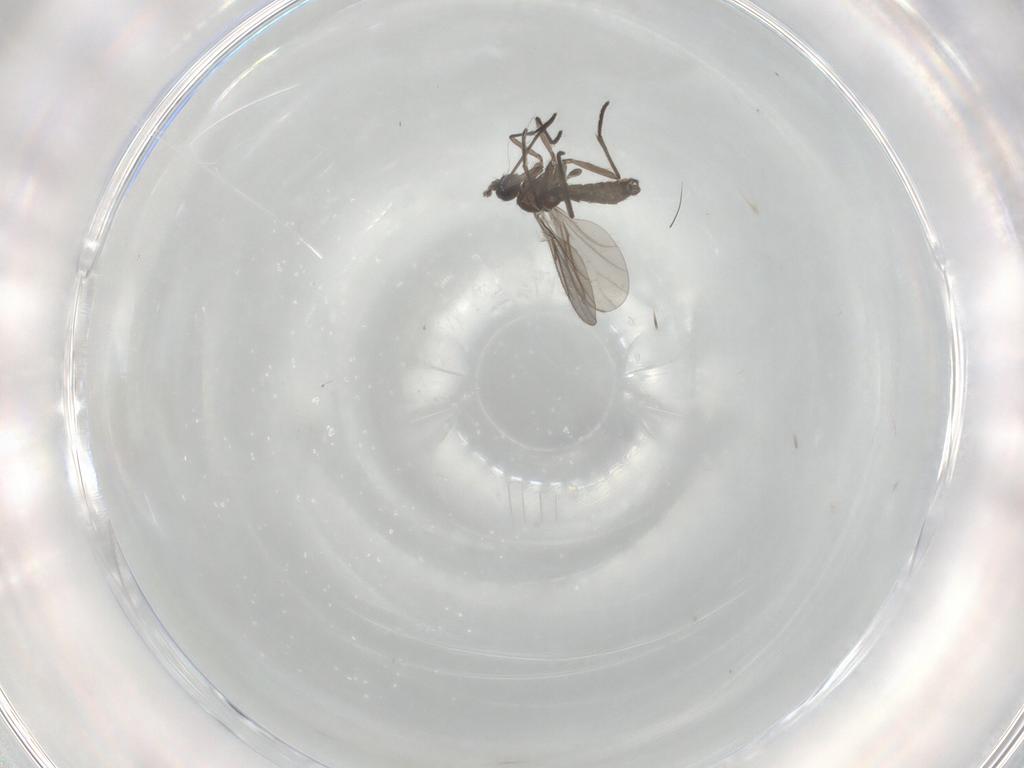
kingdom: Animalia
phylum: Arthropoda
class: Insecta
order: Diptera
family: Sciaridae
